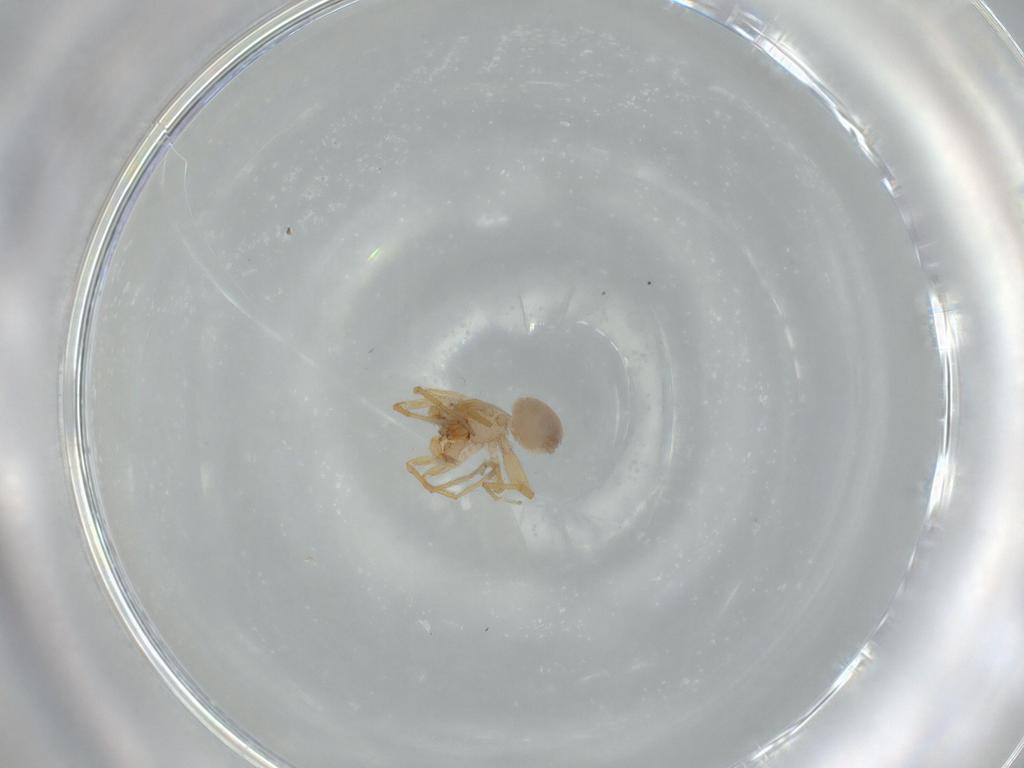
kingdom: Animalia
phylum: Arthropoda
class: Arachnida
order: Araneae
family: Oonopidae
